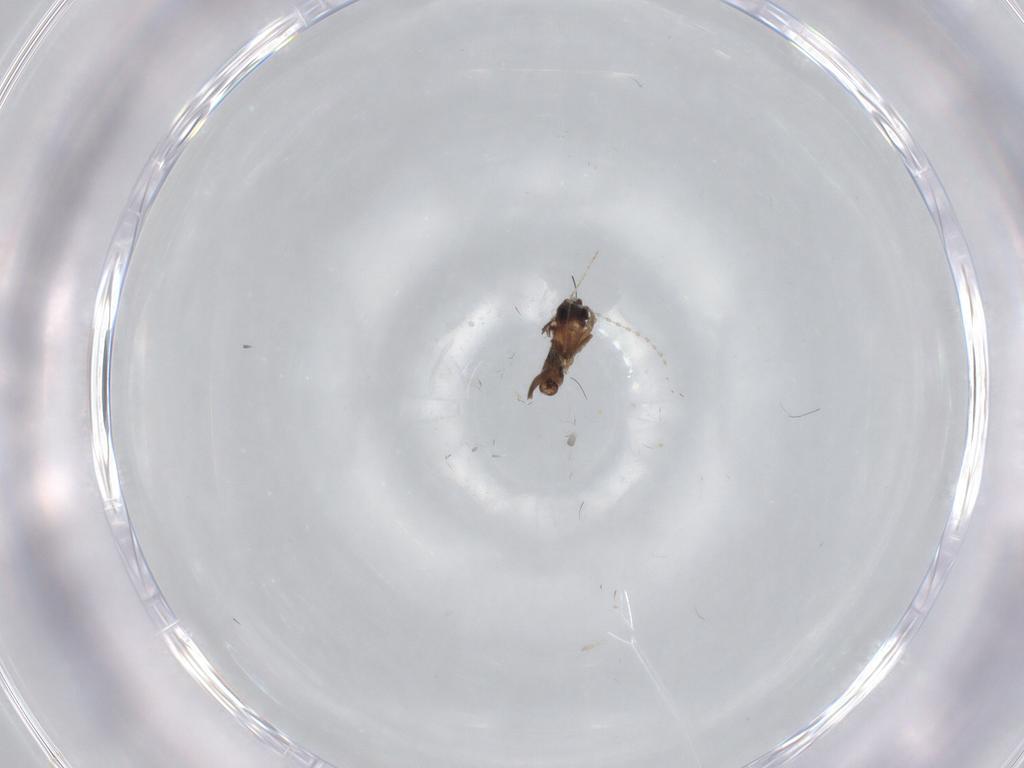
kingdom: Animalia
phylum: Arthropoda
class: Insecta
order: Diptera
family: Cecidomyiidae
